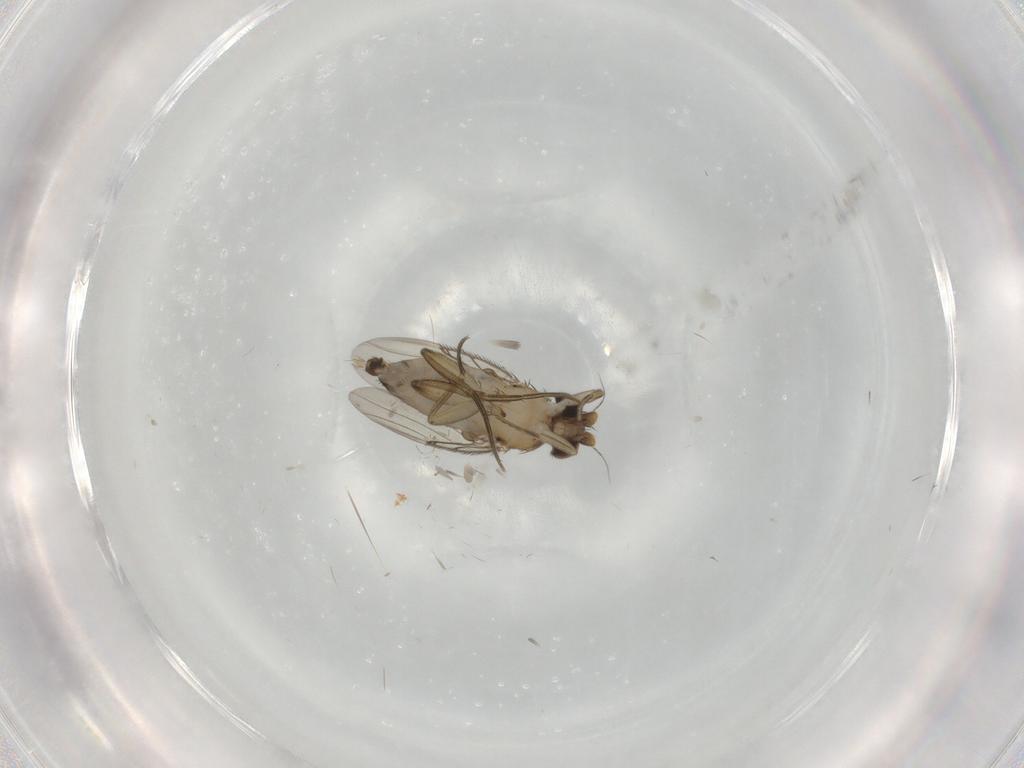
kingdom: Animalia
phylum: Arthropoda
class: Insecta
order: Diptera
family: Phoridae
